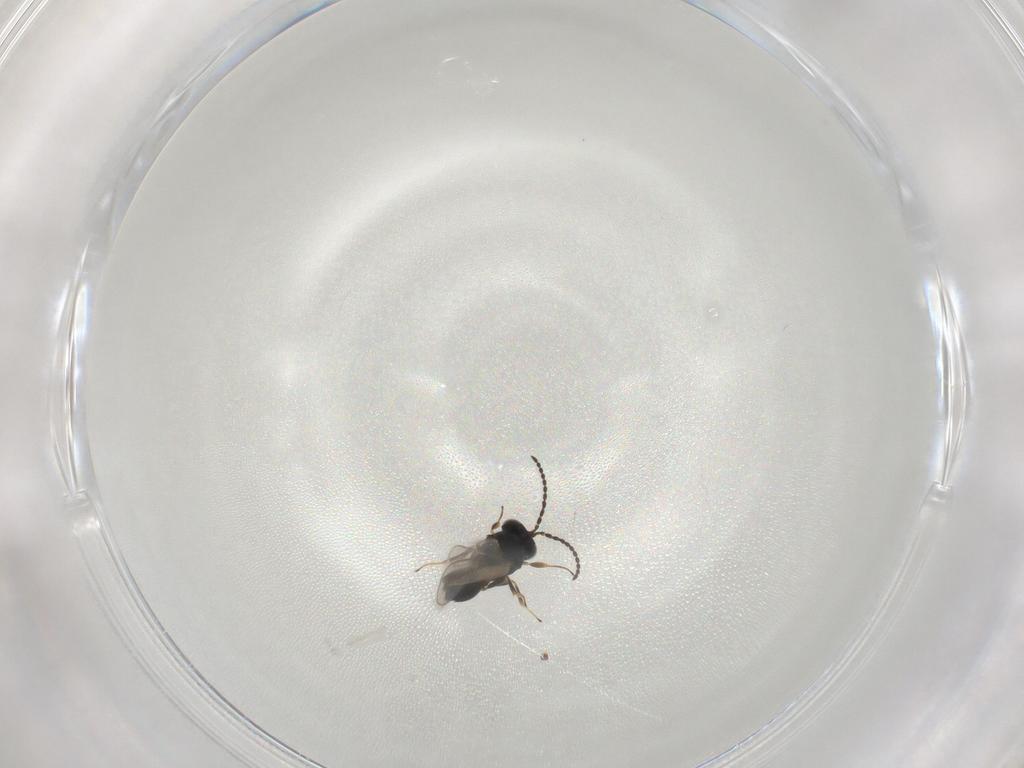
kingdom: Animalia
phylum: Arthropoda
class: Insecta
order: Hymenoptera
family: Scelionidae
